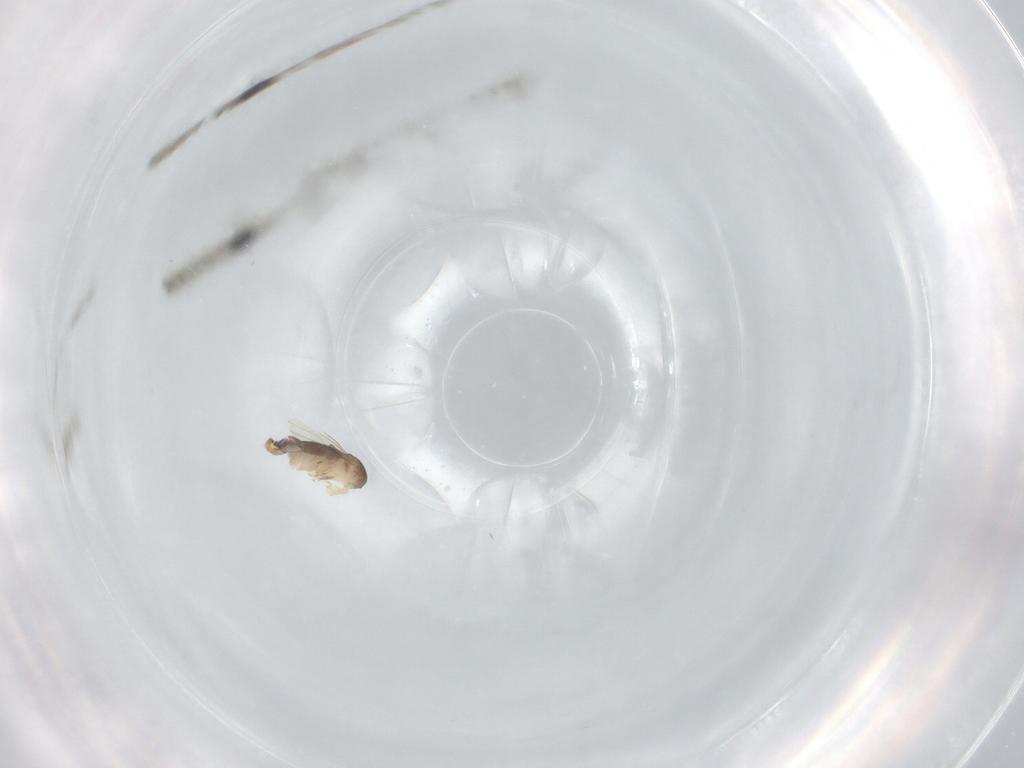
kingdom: Animalia
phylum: Arthropoda
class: Insecta
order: Diptera
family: Phoridae
